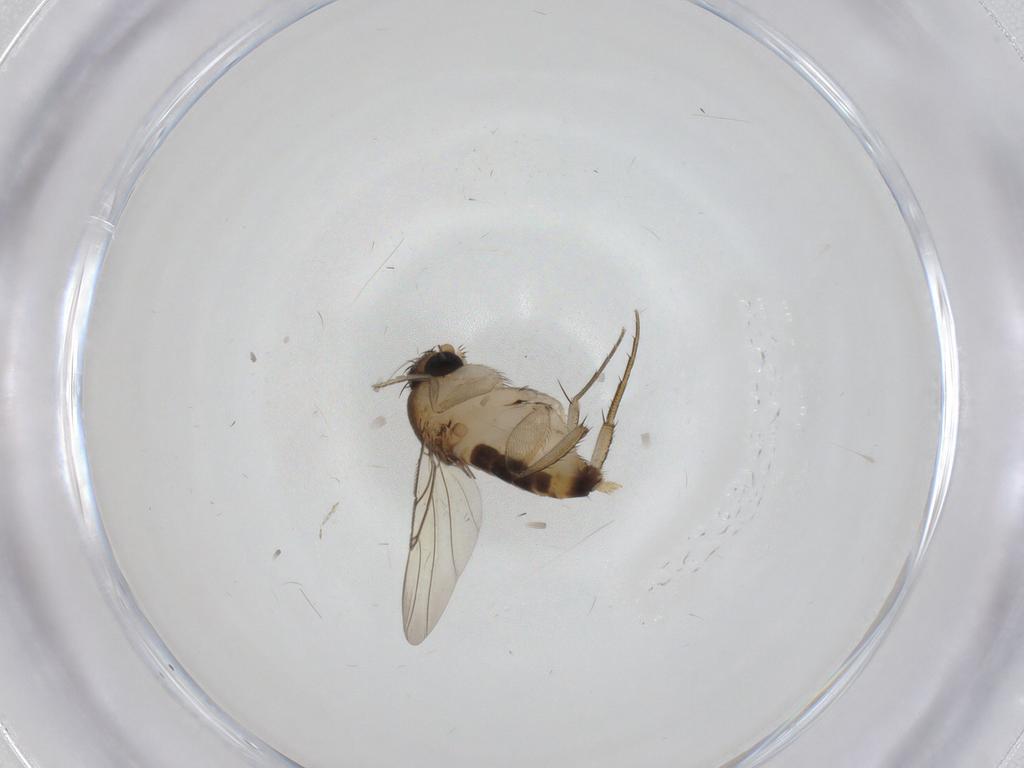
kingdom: Animalia
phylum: Arthropoda
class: Insecta
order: Diptera
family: Phoridae
